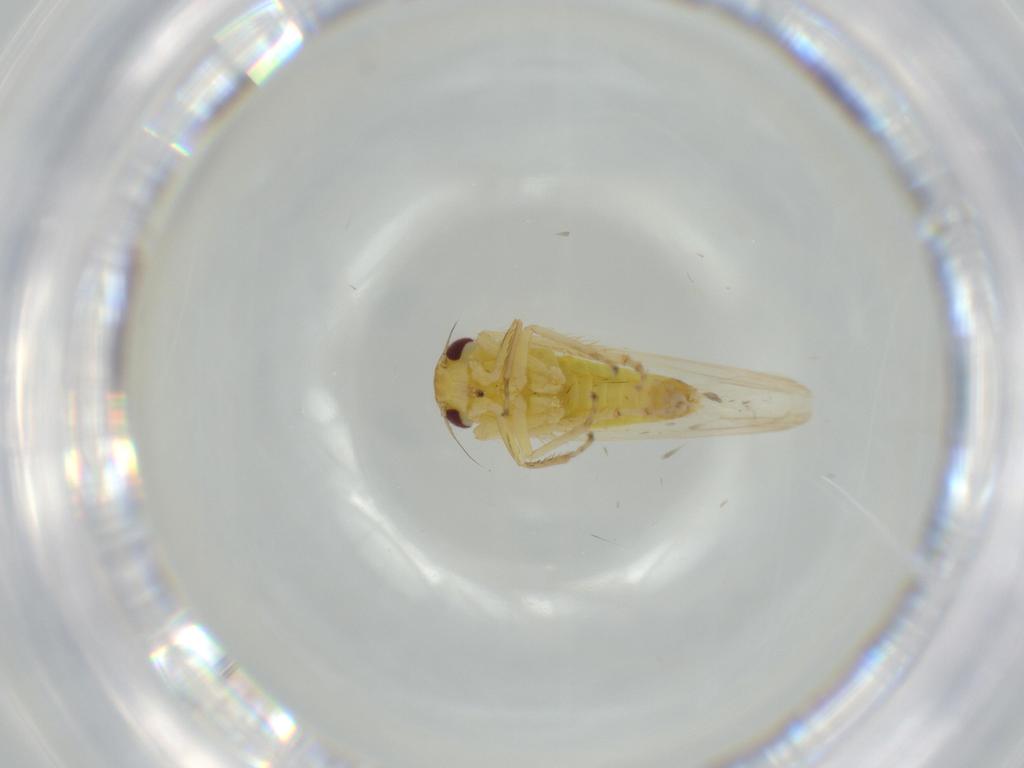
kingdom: Animalia
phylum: Arthropoda
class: Insecta
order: Hemiptera
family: Cicadellidae
